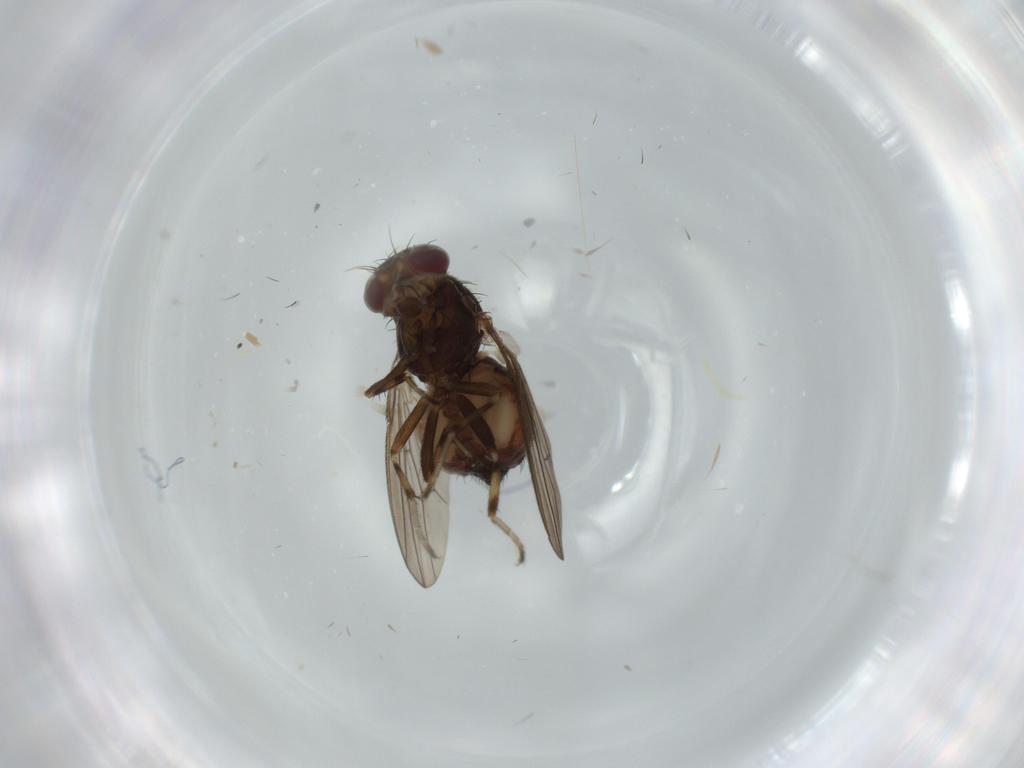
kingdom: Animalia
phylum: Arthropoda
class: Insecta
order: Diptera
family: Heleomyzidae
